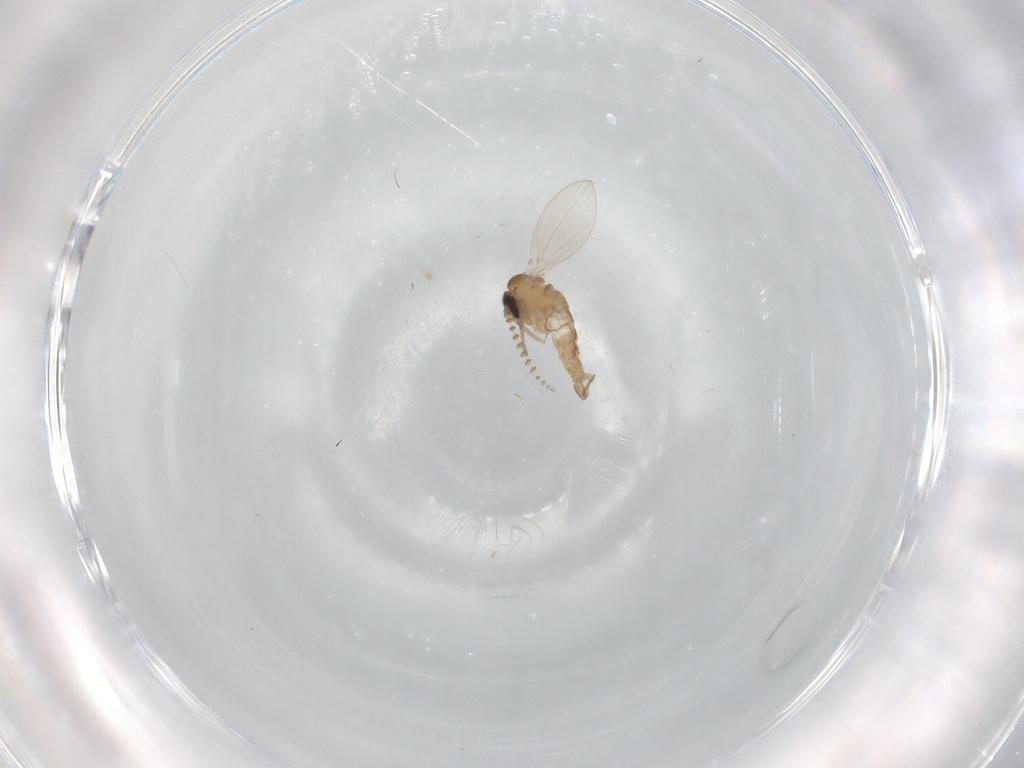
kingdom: Animalia
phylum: Arthropoda
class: Insecta
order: Diptera
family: Psychodidae
